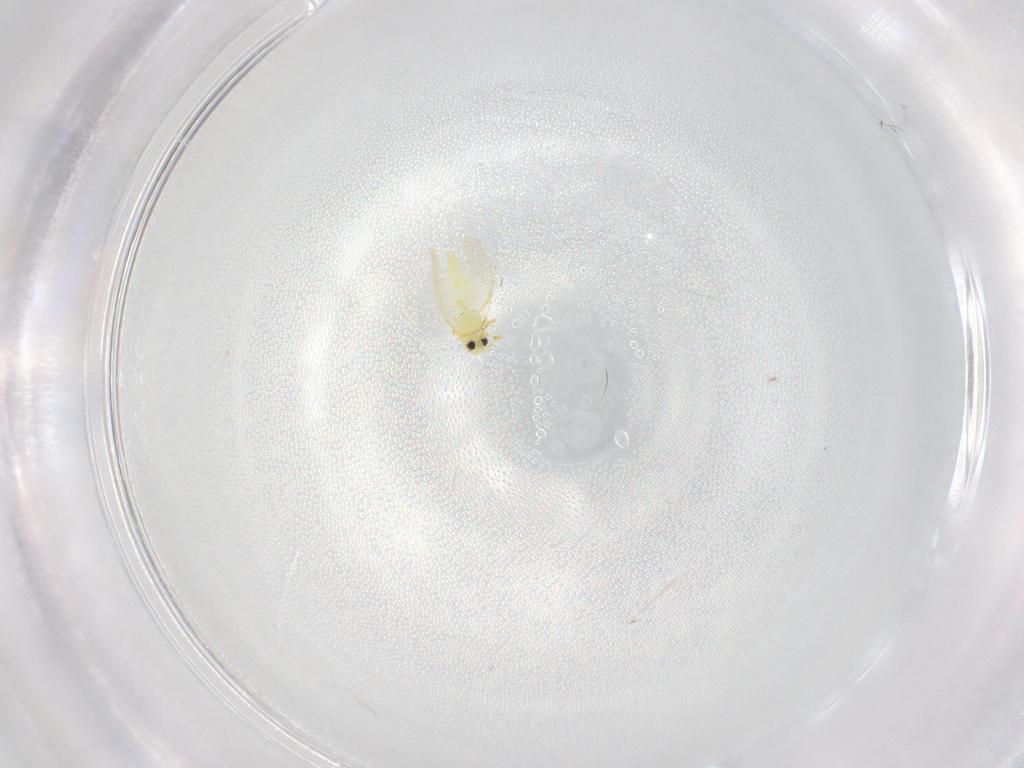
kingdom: Animalia
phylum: Arthropoda
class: Insecta
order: Hemiptera
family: Aleyrodidae
